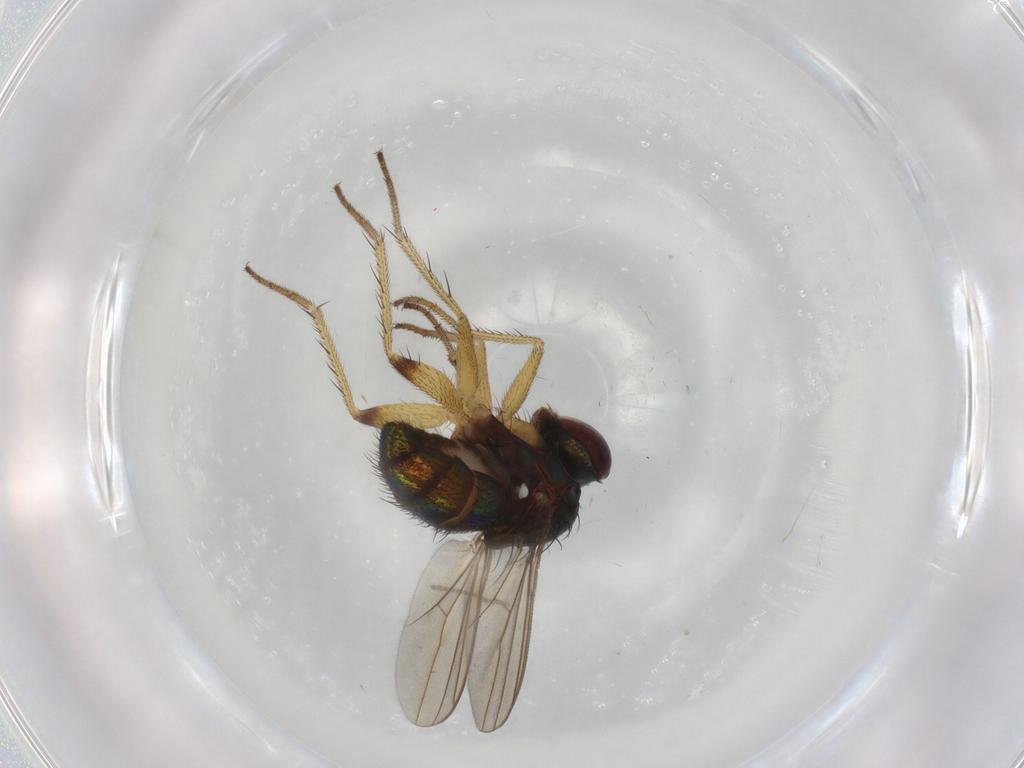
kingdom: Animalia
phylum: Arthropoda
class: Insecta
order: Diptera
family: Dolichopodidae
